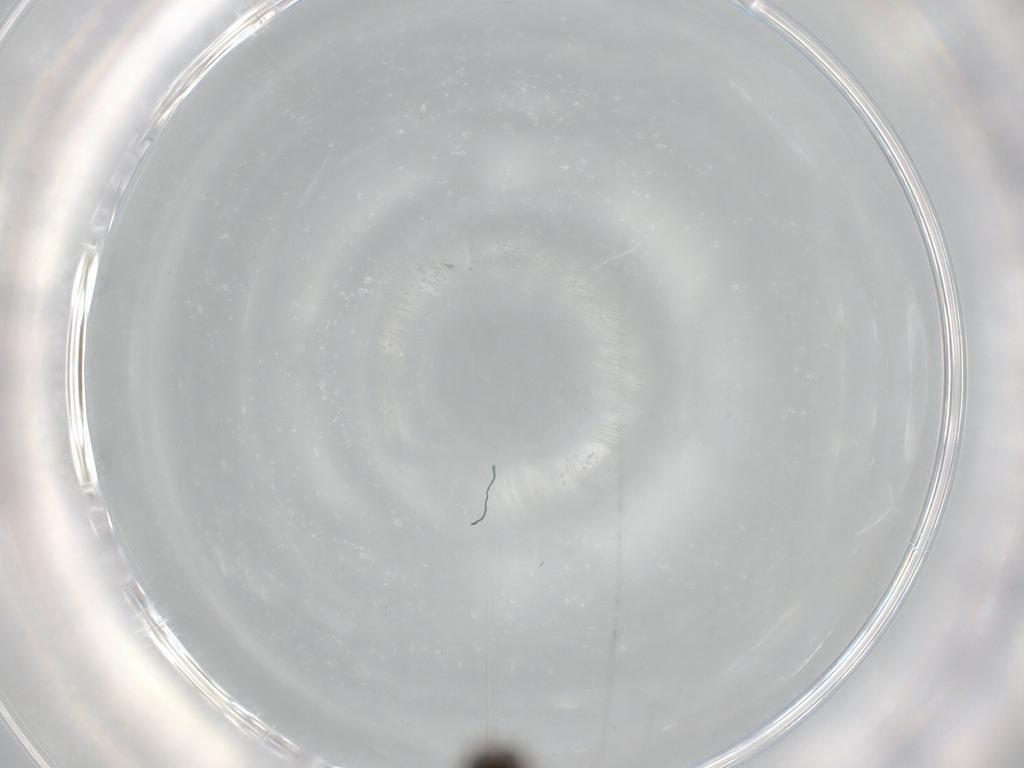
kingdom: Animalia
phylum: Arthropoda
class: Insecta
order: Diptera
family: Chironomidae
